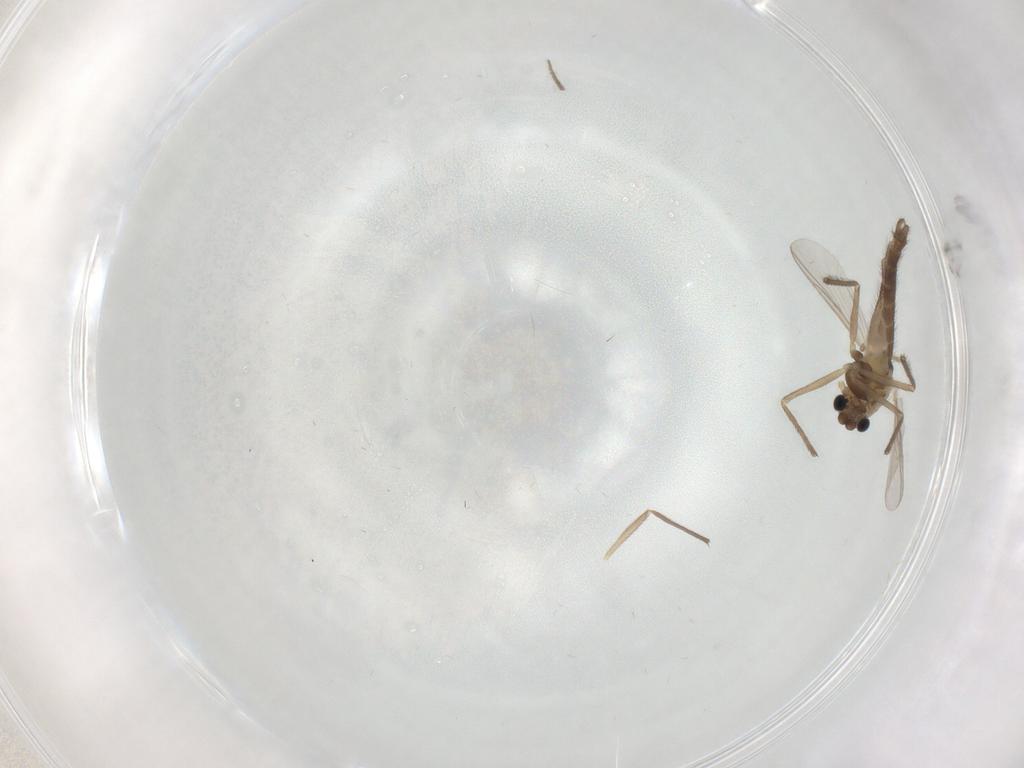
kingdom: Animalia
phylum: Arthropoda
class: Insecta
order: Diptera
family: Chironomidae
